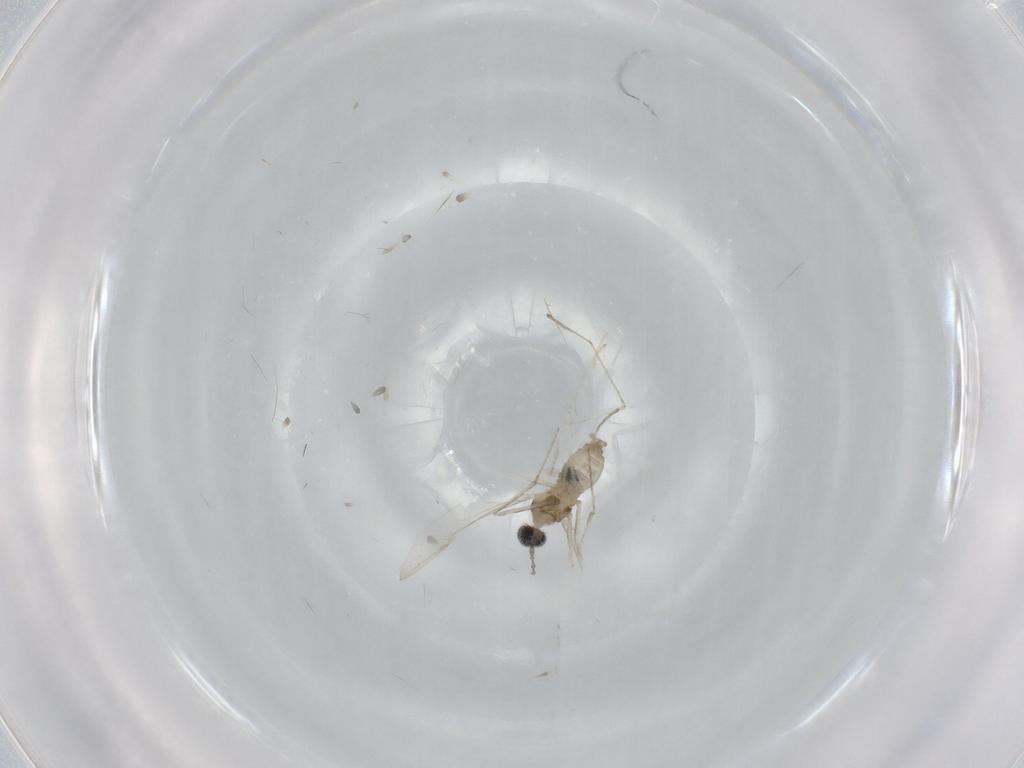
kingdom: Animalia
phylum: Arthropoda
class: Insecta
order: Diptera
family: Cecidomyiidae
